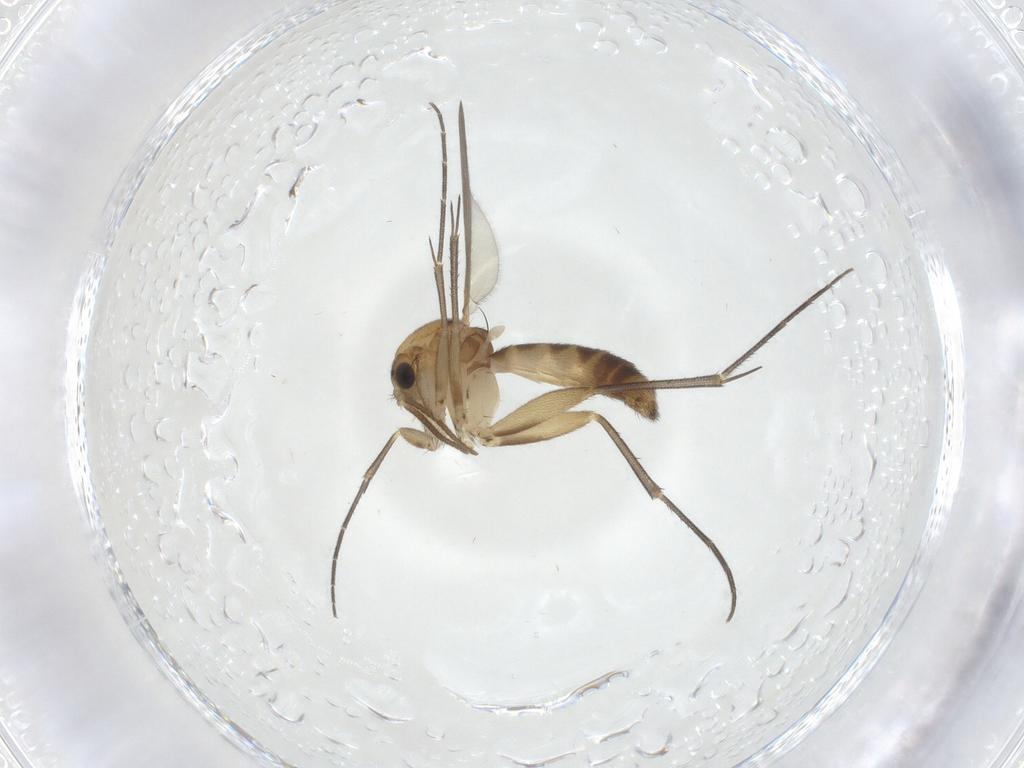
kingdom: Animalia
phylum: Arthropoda
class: Insecta
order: Diptera
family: Mycetophilidae
